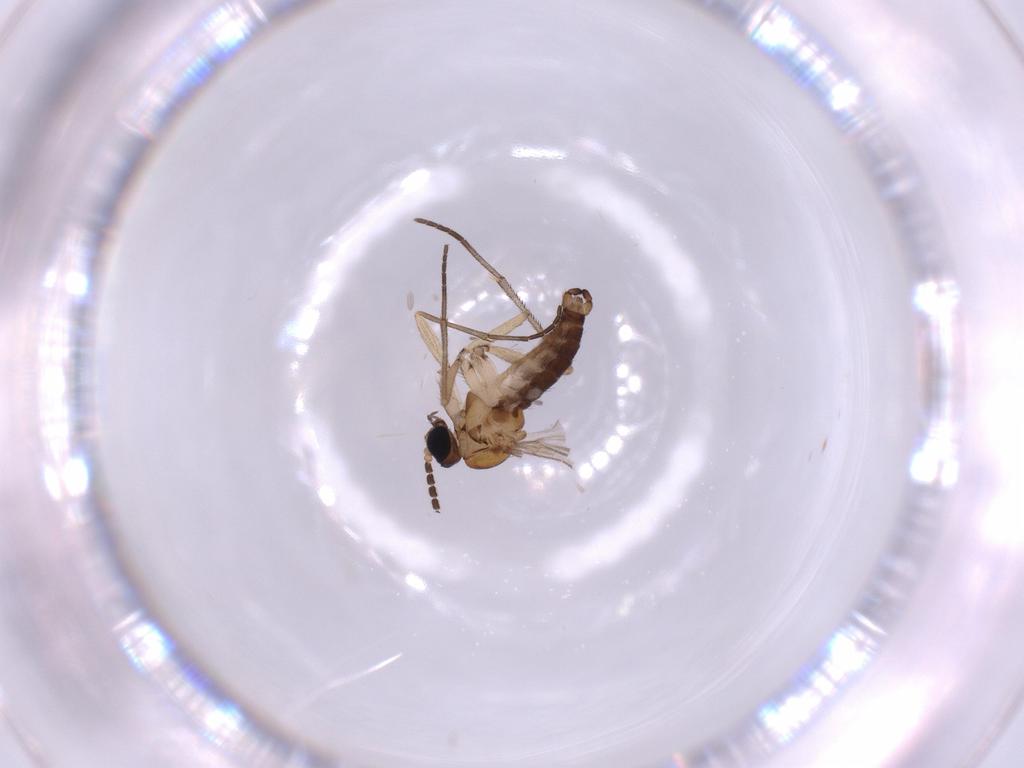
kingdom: Animalia
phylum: Arthropoda
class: Insecta
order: Diptera
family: Sciaridae
